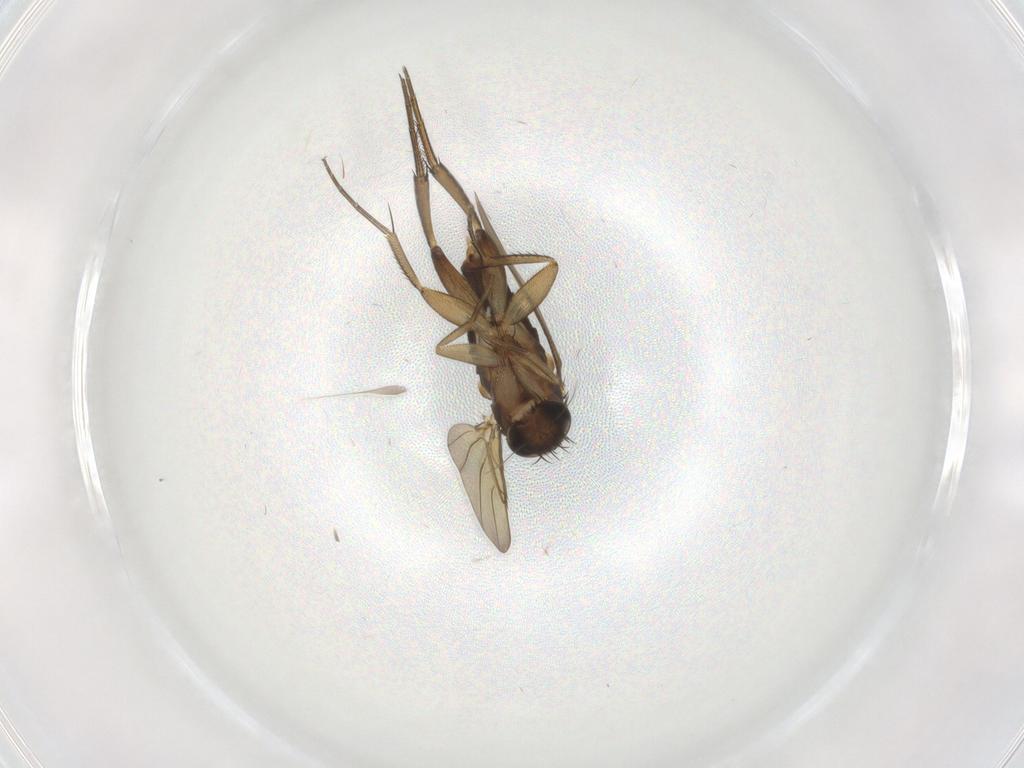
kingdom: Animalia
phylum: Arthropoda
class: Insecta
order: Diptera
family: Phoridae
